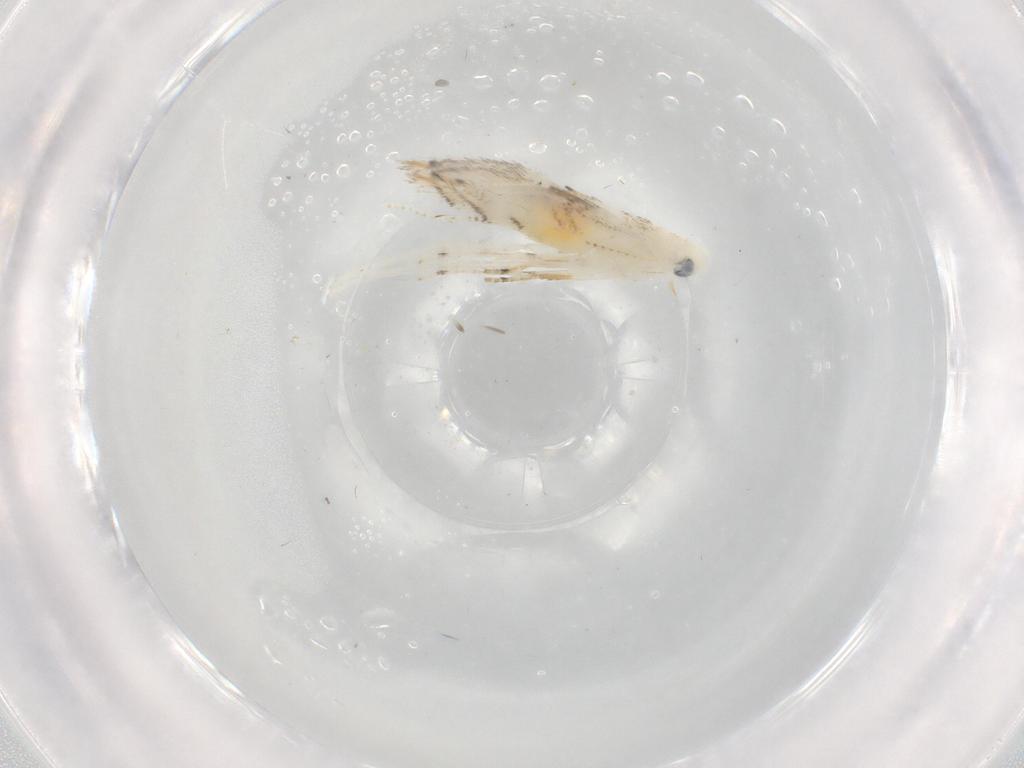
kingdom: Animalia
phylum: Arthropoda
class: Insecta
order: Lepidoptera
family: Gracillariidae
